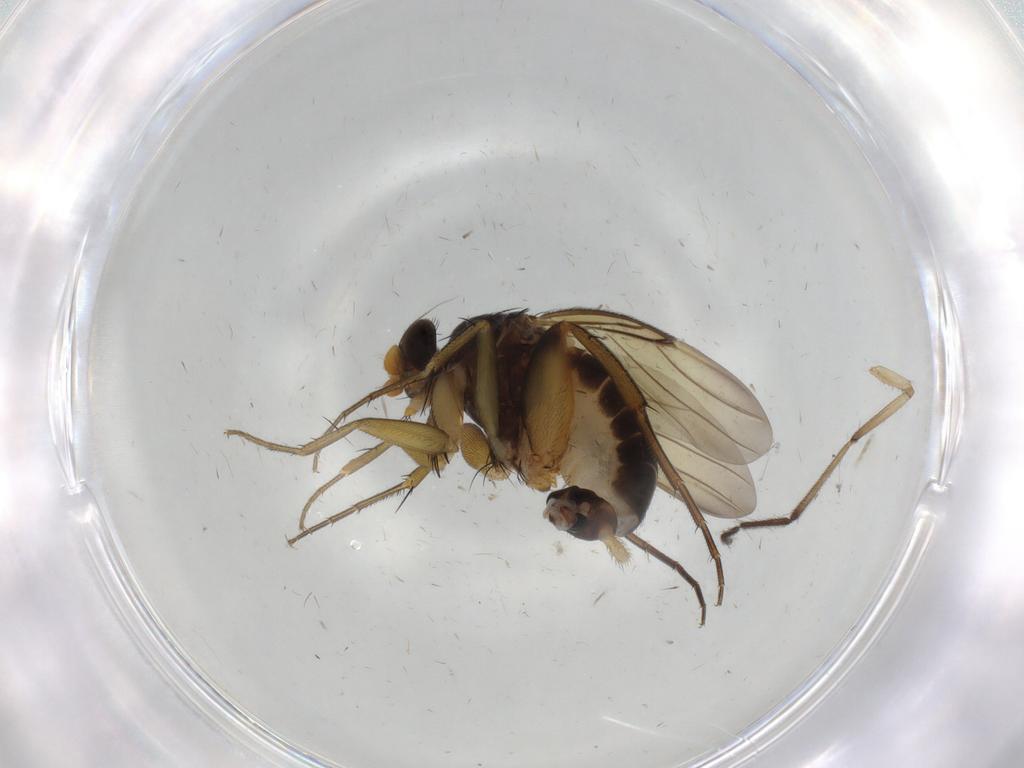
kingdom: Animalia
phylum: Arthropoda
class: Insecta
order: Diptera
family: Phoridae
